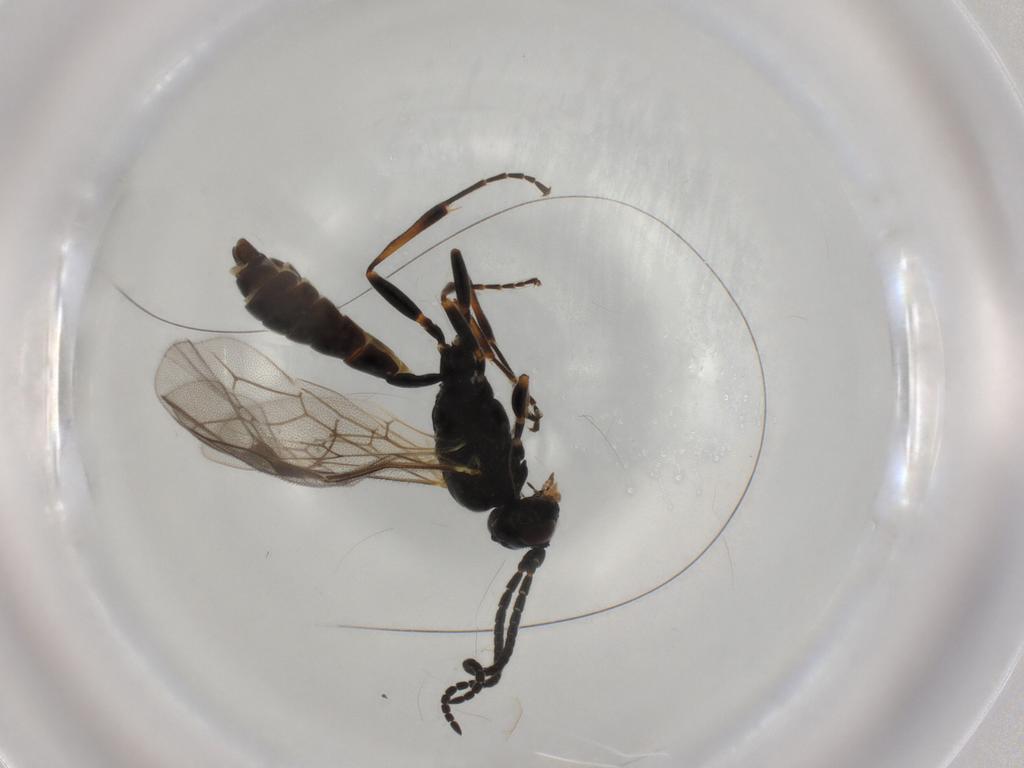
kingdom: Animalia
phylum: Arthropoda
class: Insecta
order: Hymenoptera
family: Ichneumonidae
